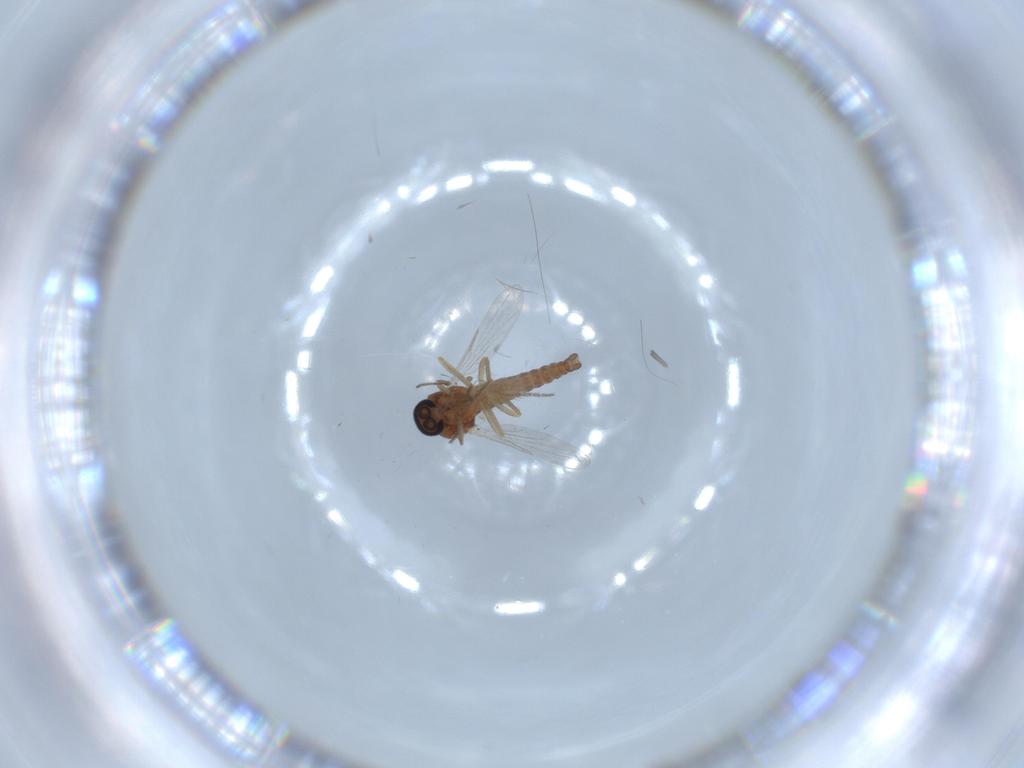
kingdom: Animalia
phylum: Arthropoda
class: Insecta
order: Diptera
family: Ceratopogonidae
